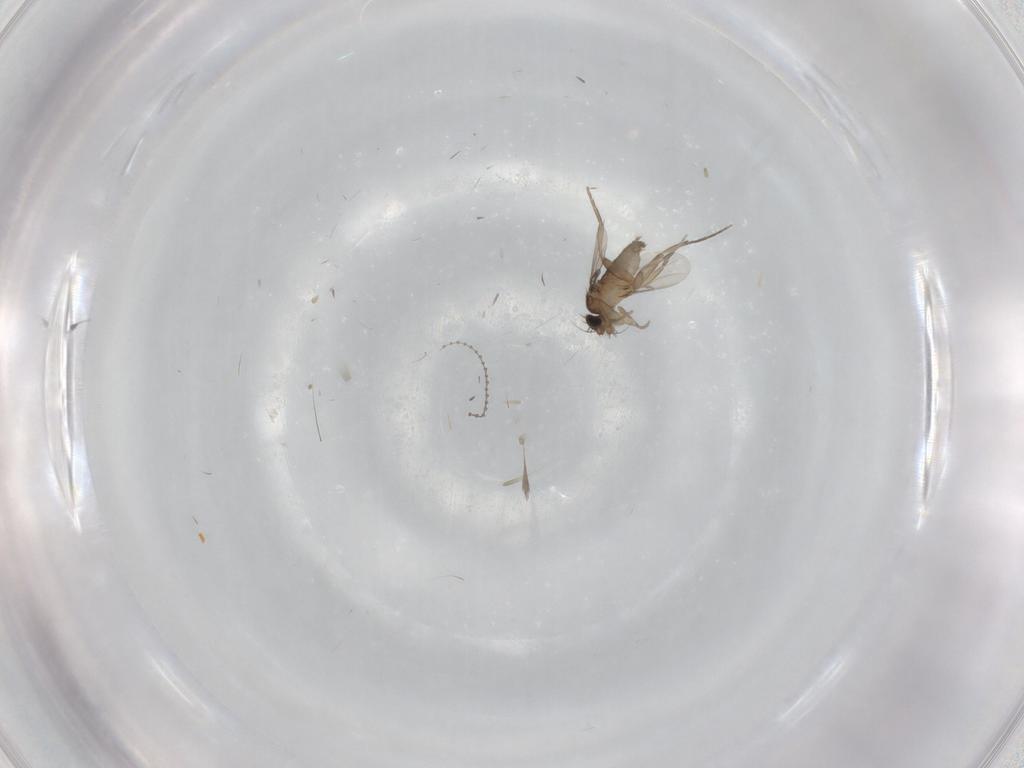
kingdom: Animalia
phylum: Arthropoda
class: Insecta
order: Diptera
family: Cecidomyiidae
